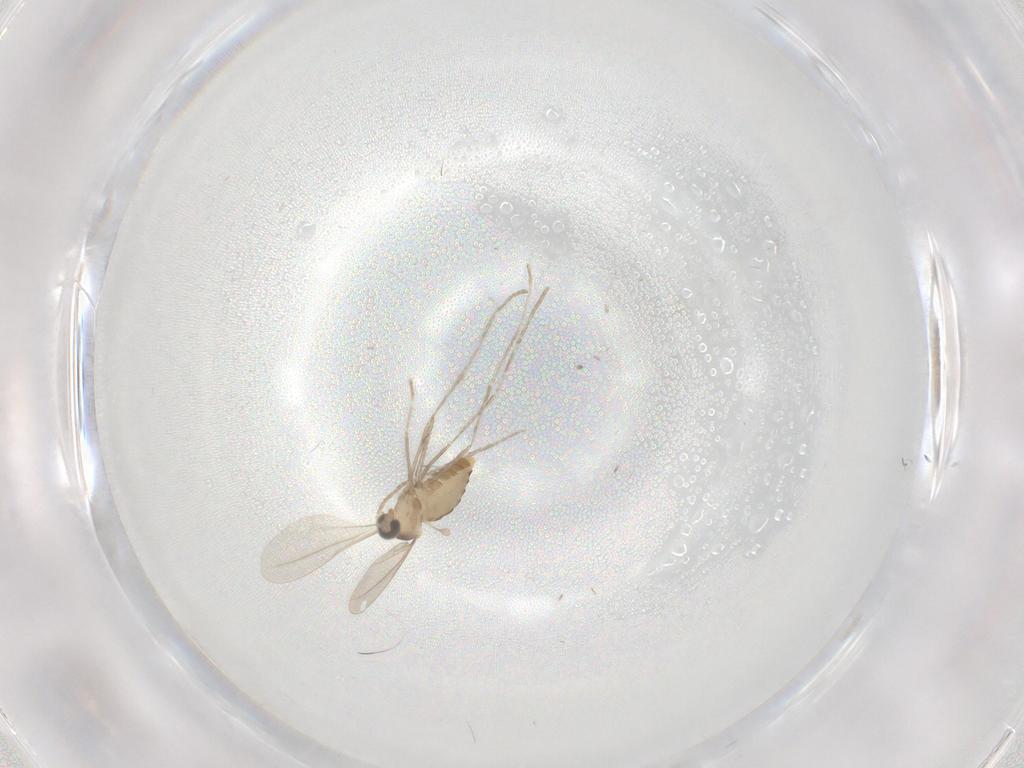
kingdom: Animalia
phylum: Arthropoda
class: Insecta
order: Diptera
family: Cecidomyiidae
